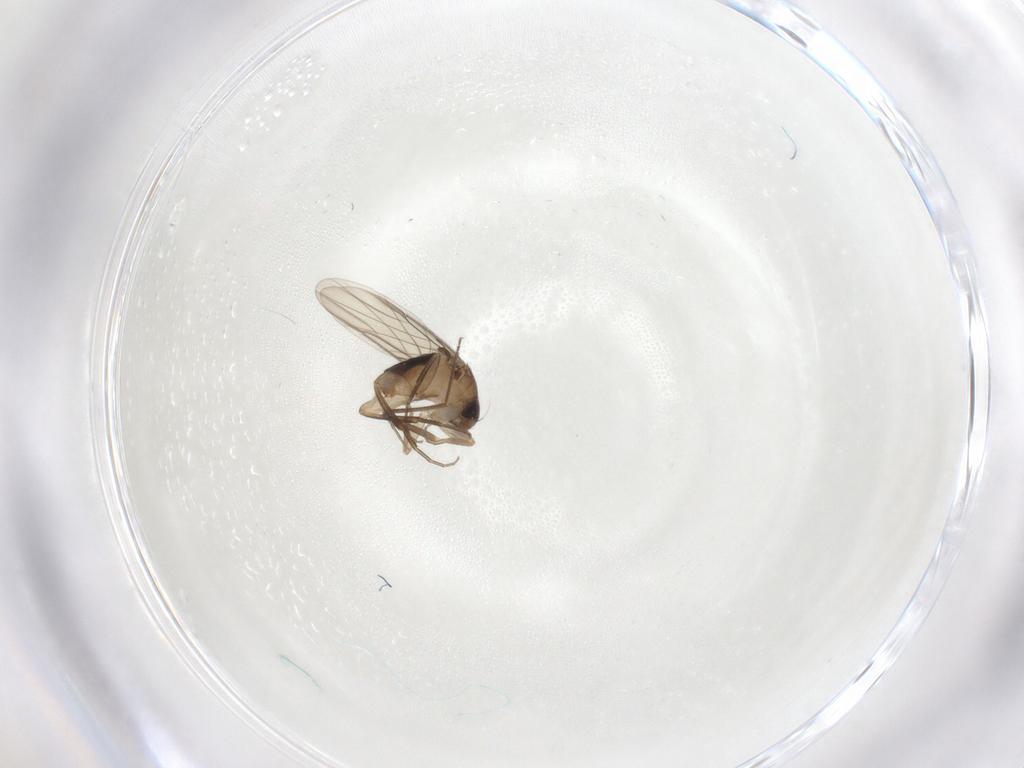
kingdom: Animalia
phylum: Arthropoda
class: Insecta
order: Diptera
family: Phoridae
